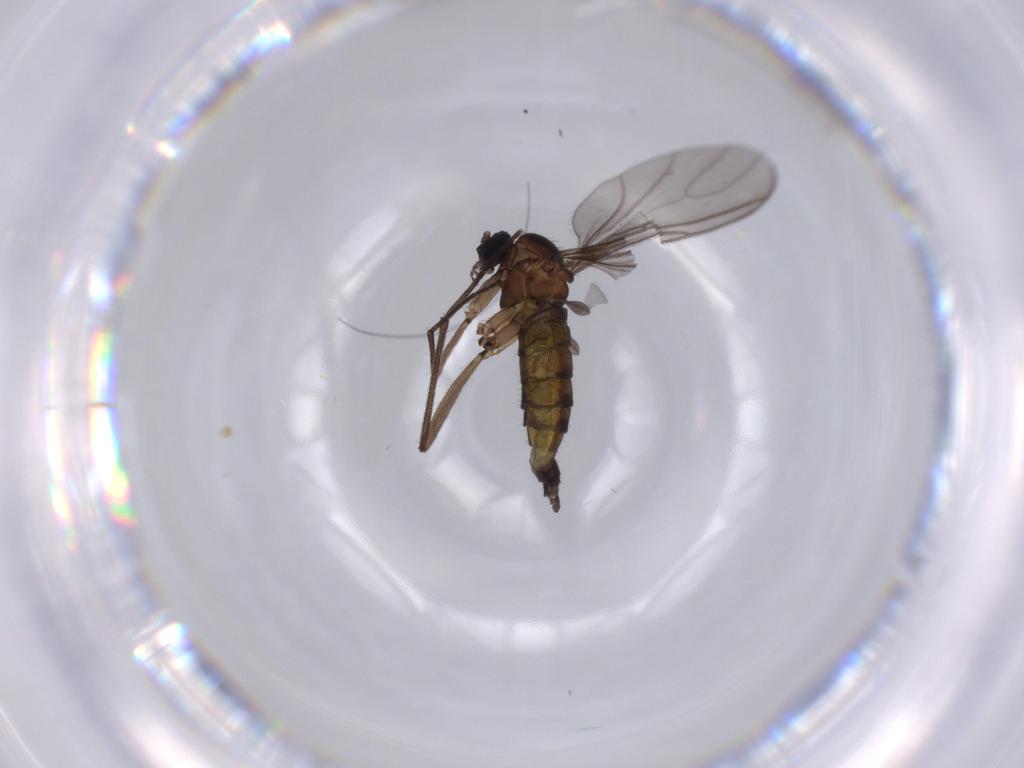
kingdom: Animalia
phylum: Arthropoda
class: Insecta
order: Diptera
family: Sciaridae
